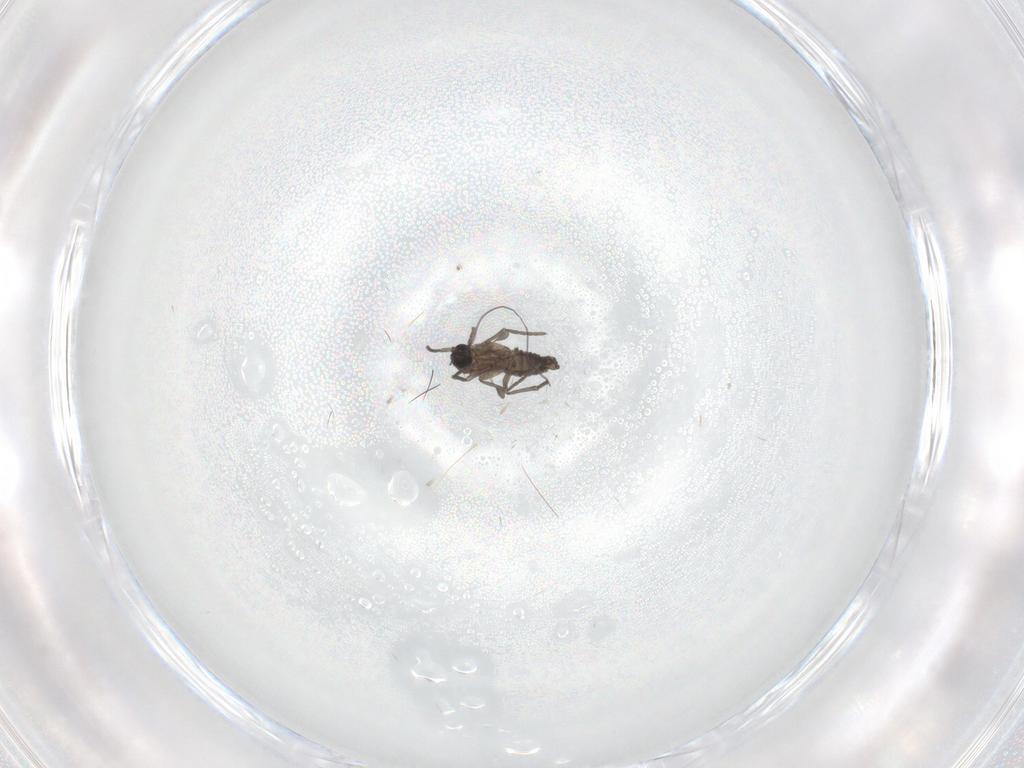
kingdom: Animalia
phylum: Arthropoda
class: Insecta
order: Diptera
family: Sciaridae
